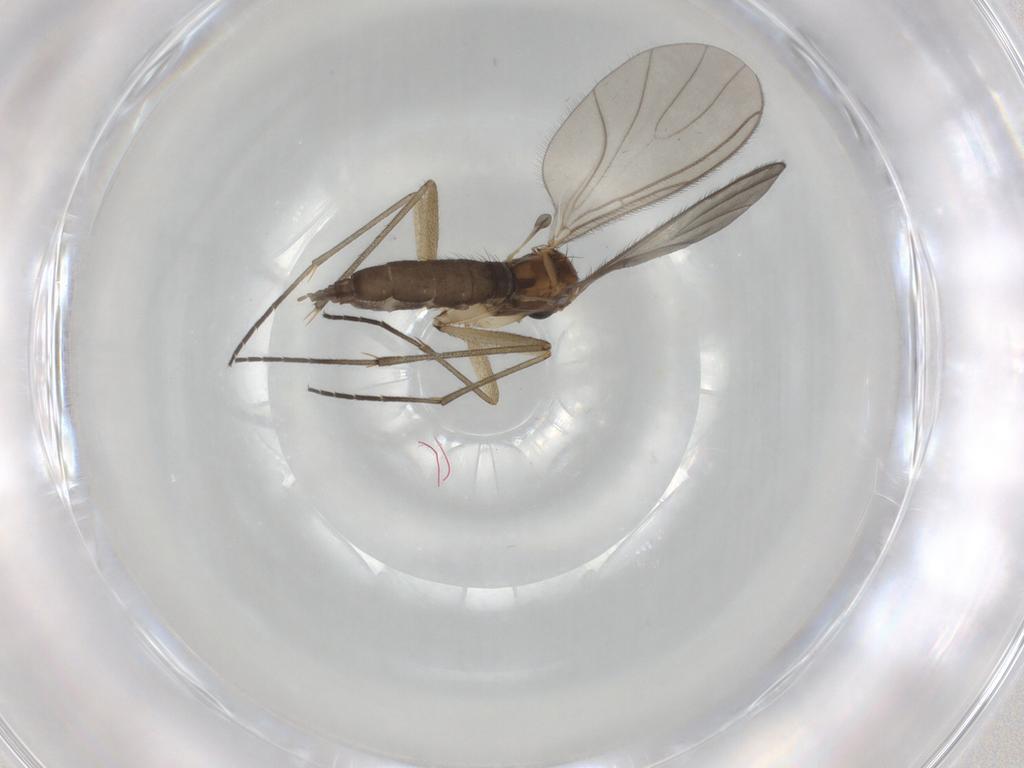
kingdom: Animalia
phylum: Arthropoda
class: Insecta
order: Diptera
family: Sciaridae
